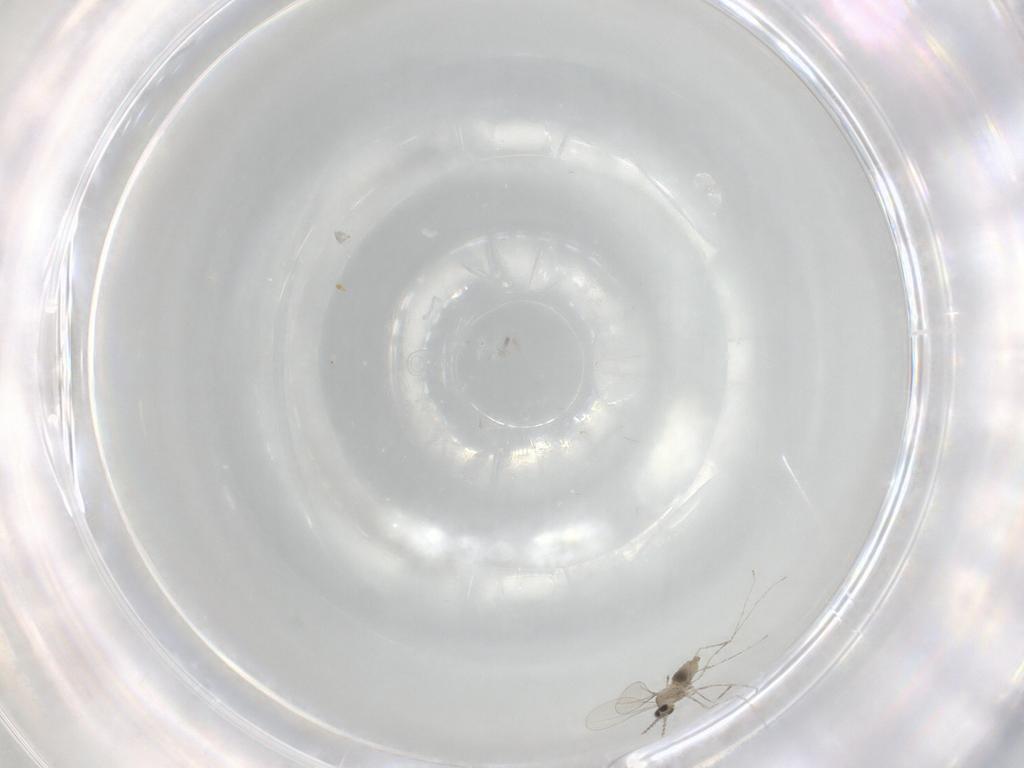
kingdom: Animalia
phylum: Arthropoda
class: Insecta
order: Diptera
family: Cecidomyiidae
